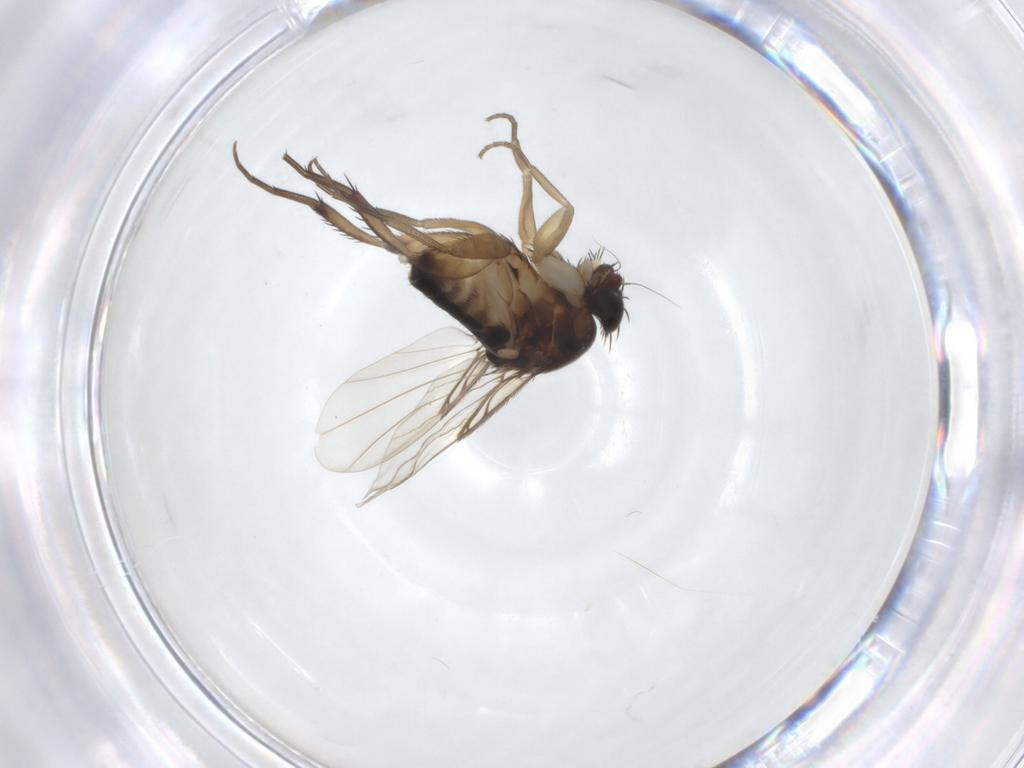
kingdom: Animalia
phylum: Arthropoda
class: Insecta
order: Diptera
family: Phoridae
